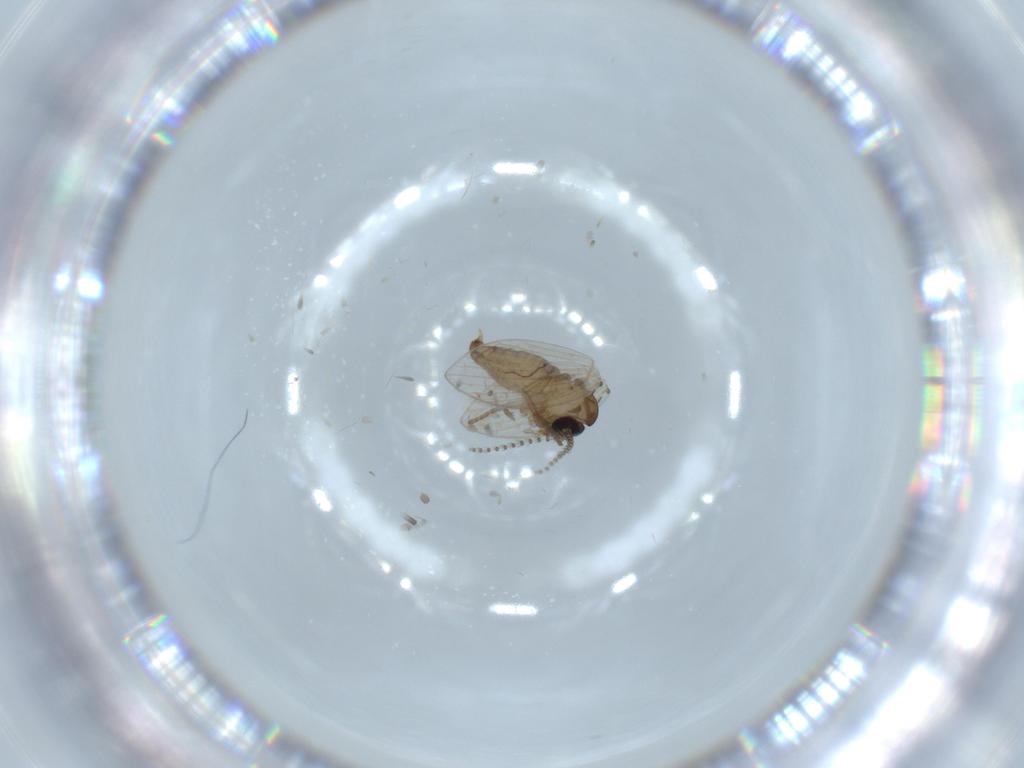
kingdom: Animalia
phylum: Arthropoda
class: Insecta
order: Diptera
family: Psychodidae
